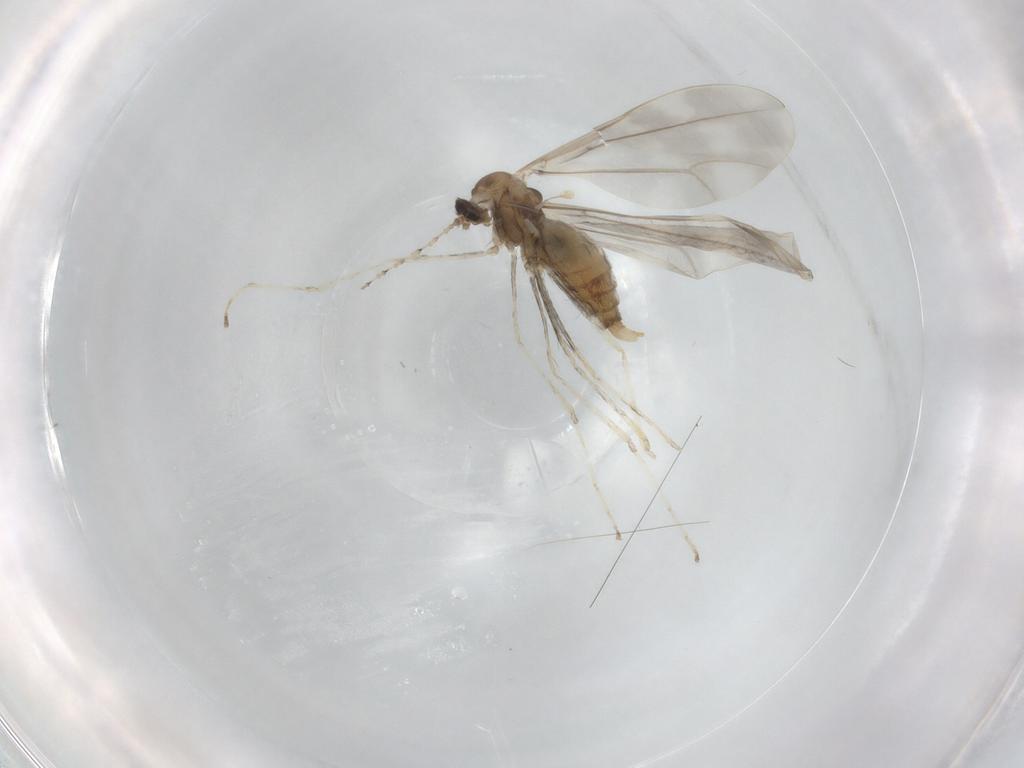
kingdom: Animalia
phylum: Arthropoda
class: Insecta
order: Diptera
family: Cecidomyiidae
